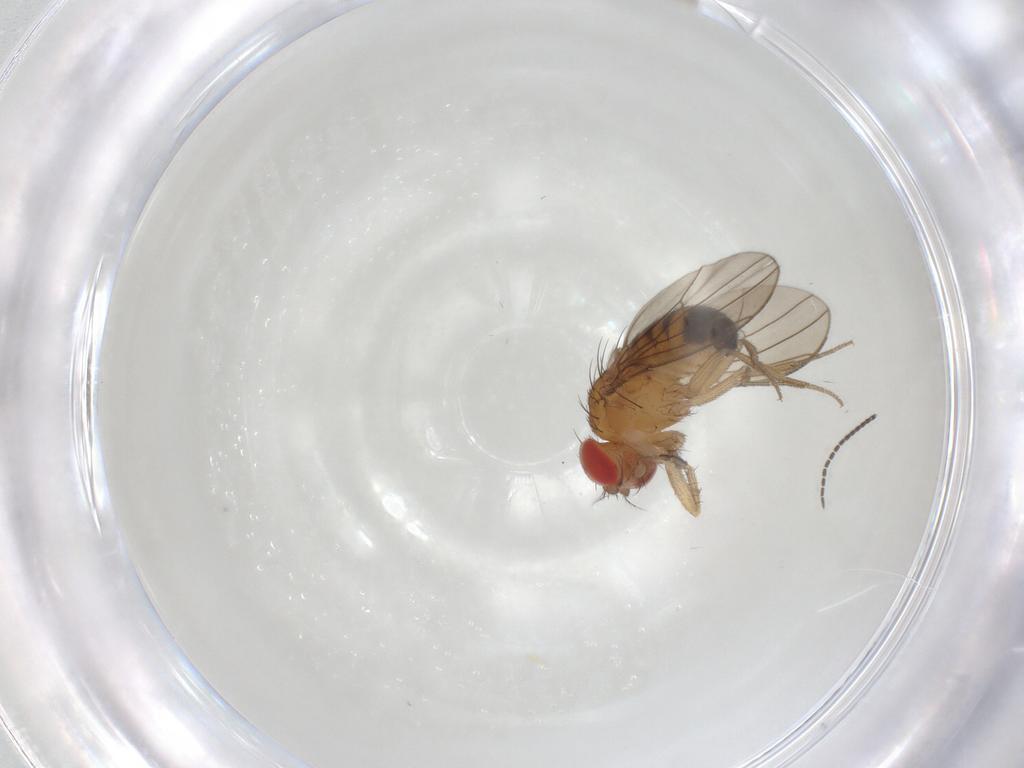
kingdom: Animalia
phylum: Arthropoda
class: Insecta
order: Diptera
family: Drosophilidae
